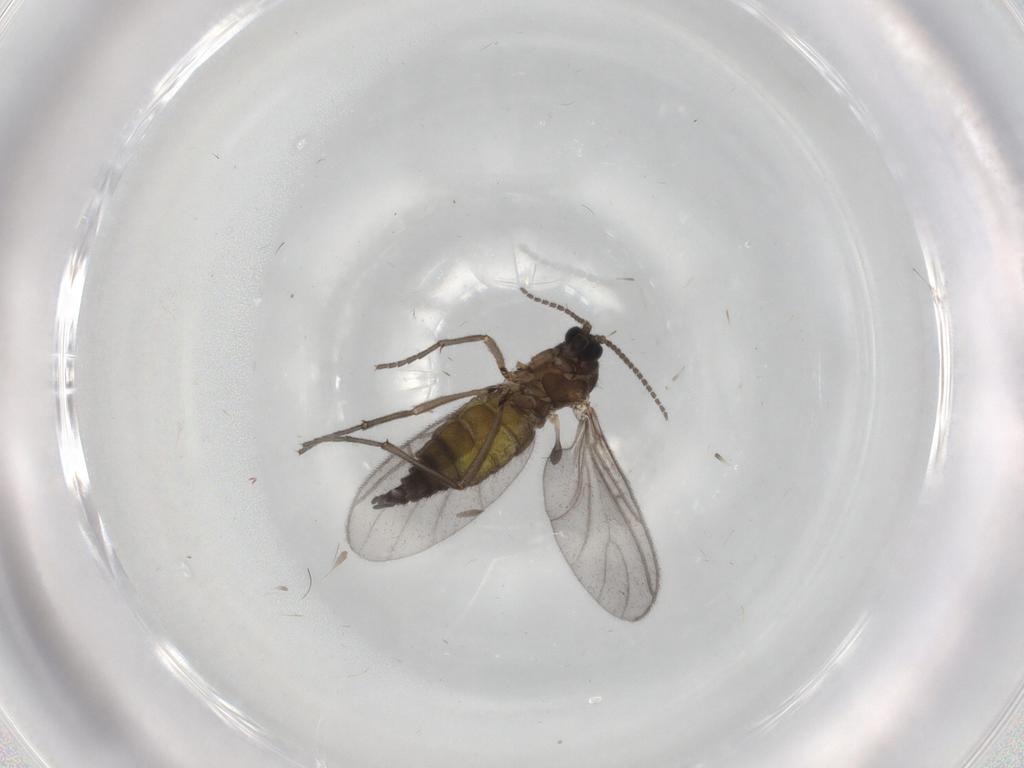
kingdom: Animalia
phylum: Arthropoda
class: Insecta
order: Diptera
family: Sciaridae
